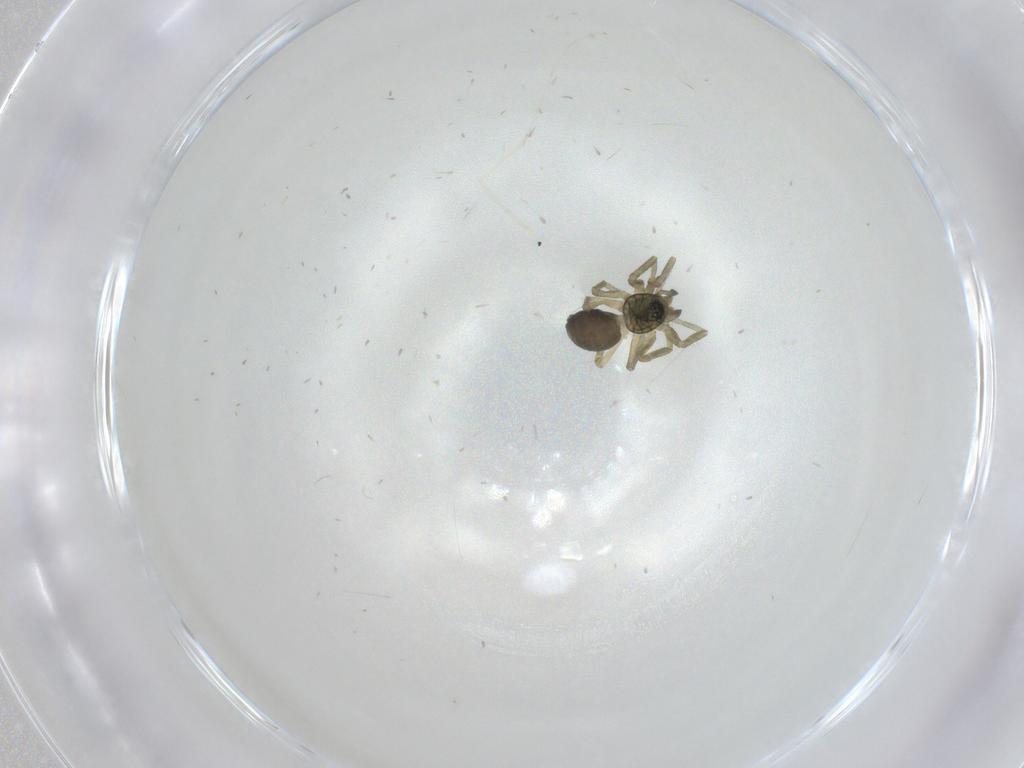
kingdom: Animalia
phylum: Arthropoda
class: Arachnida
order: Araneae
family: Linyphiidae
